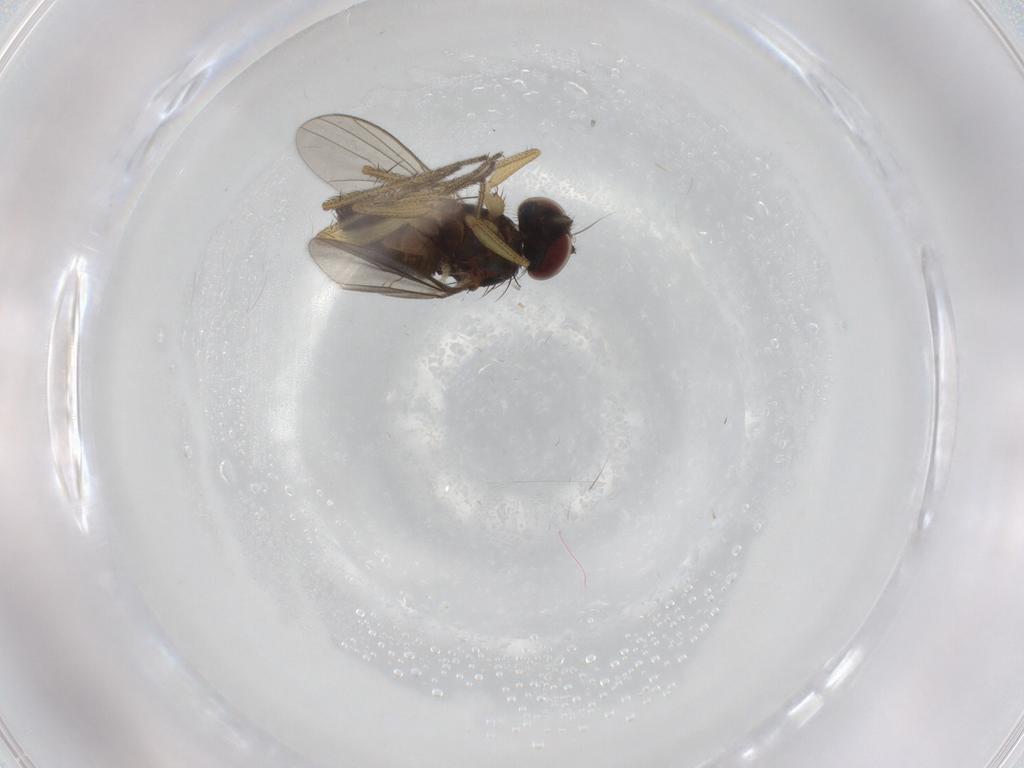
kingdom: Animalia
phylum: Arthropoda
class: Insecta
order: Diptera
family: Dolichopodidae
